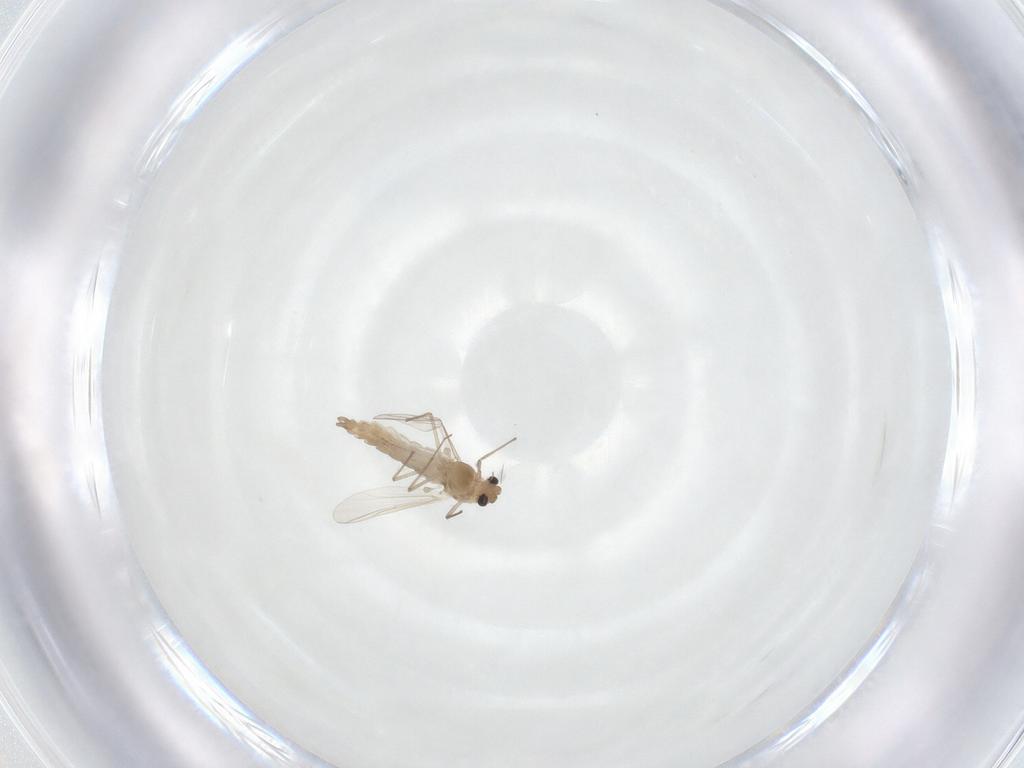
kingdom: Animalia
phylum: Arthropoda
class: Insecta
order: Diptera
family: Chironomidae
